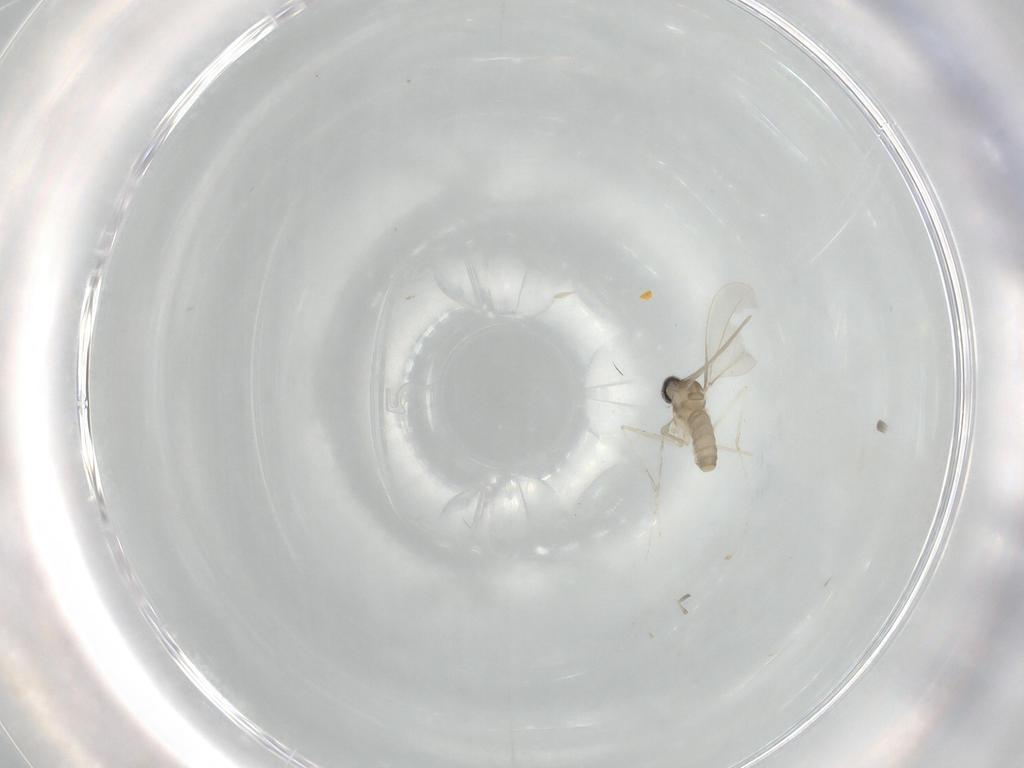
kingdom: Animalia
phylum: Arthropoda
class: Insecta
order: Diptera
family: Cecidomyiidae
